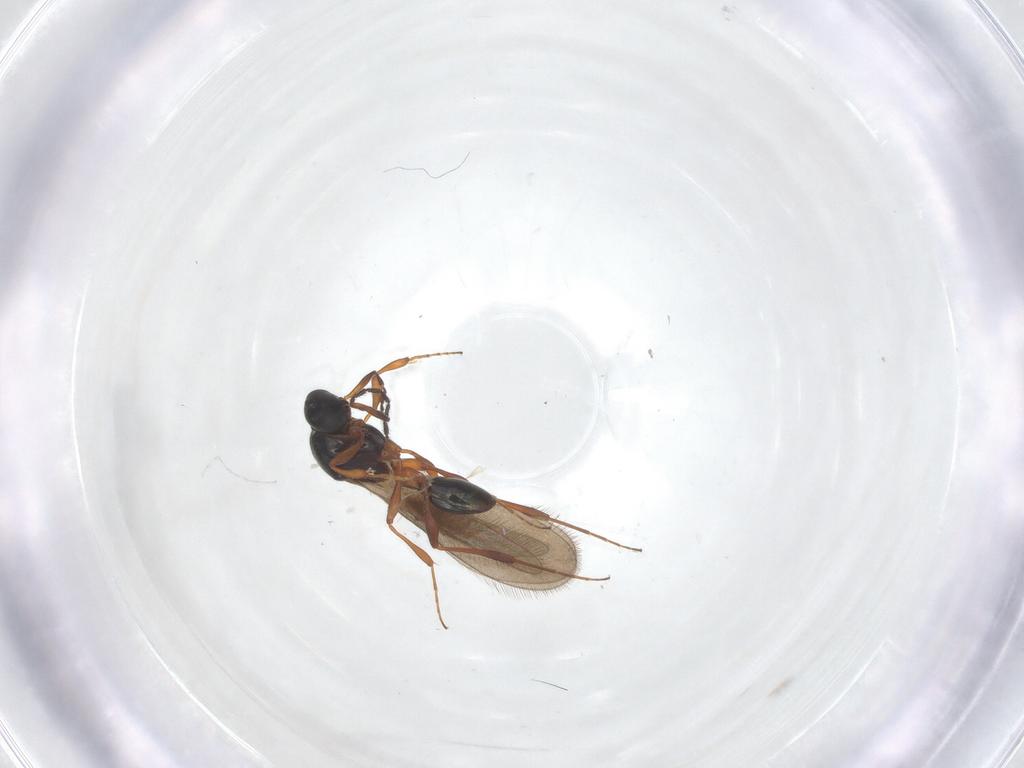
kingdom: Animalia
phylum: Arthropoda
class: Insecta
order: Hymenoptera
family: Platygastridae
